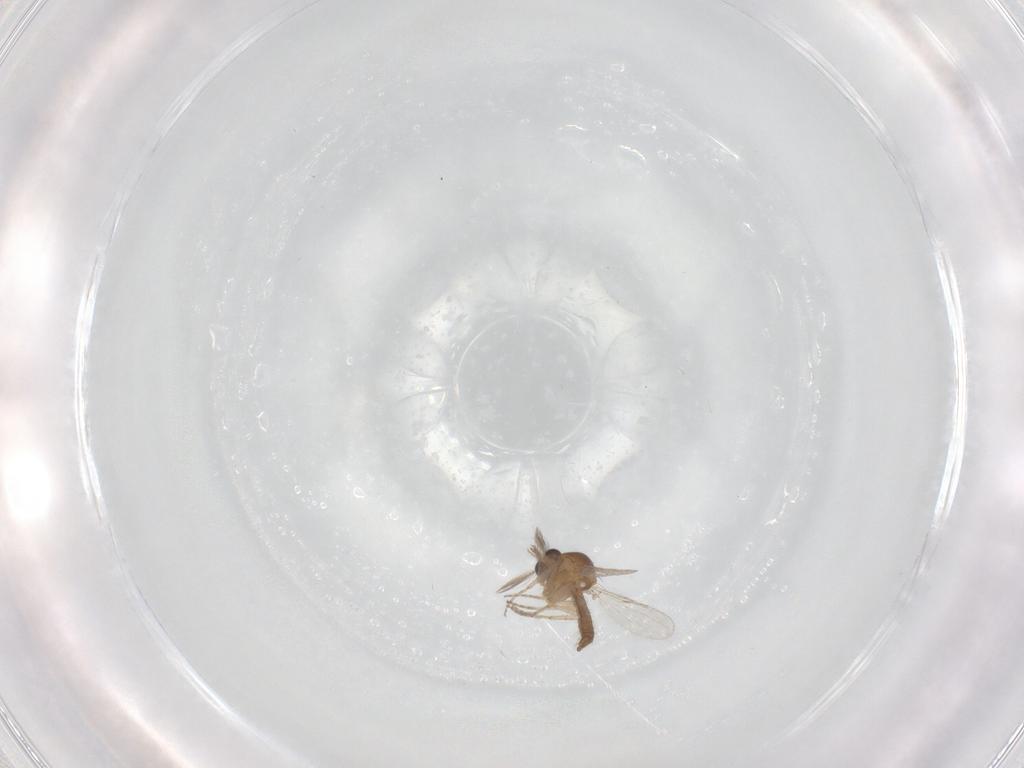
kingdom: Animalia
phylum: Arthropoda
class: Insecta
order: Diptera
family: Ceratopogonidae
